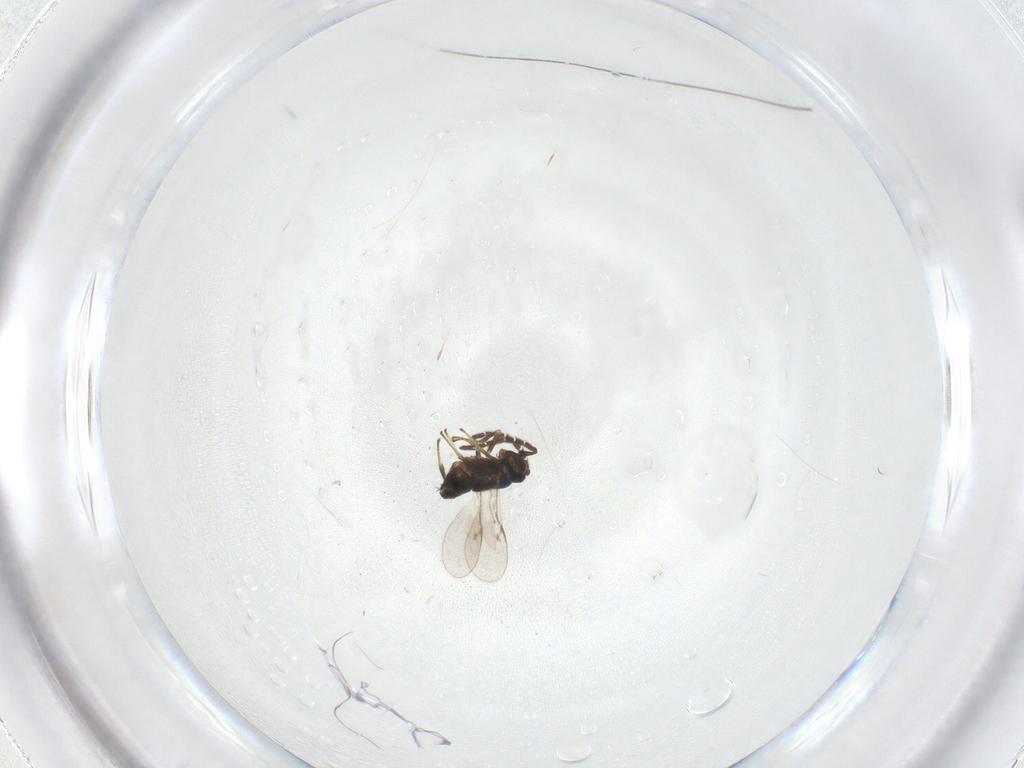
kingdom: Animalia
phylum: Arthropoda
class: Insecta
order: Hymenoptera
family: Encyrtidae
